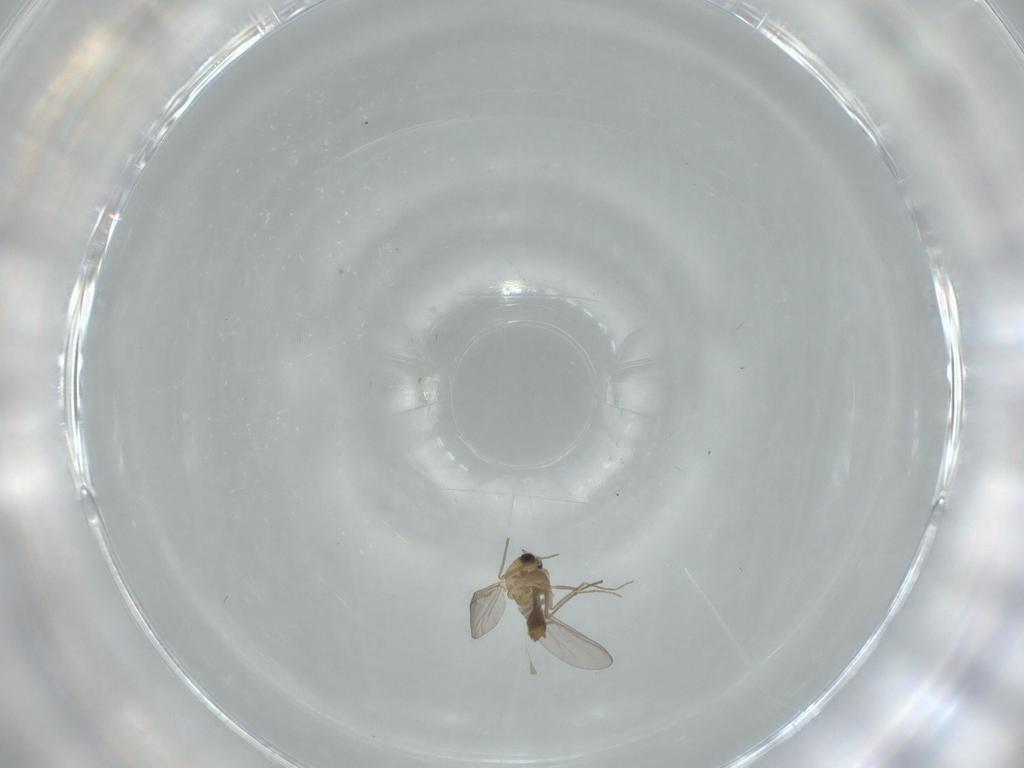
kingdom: Animalia
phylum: Arthropoda
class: Insecta
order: Diptera
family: Chironomidae
